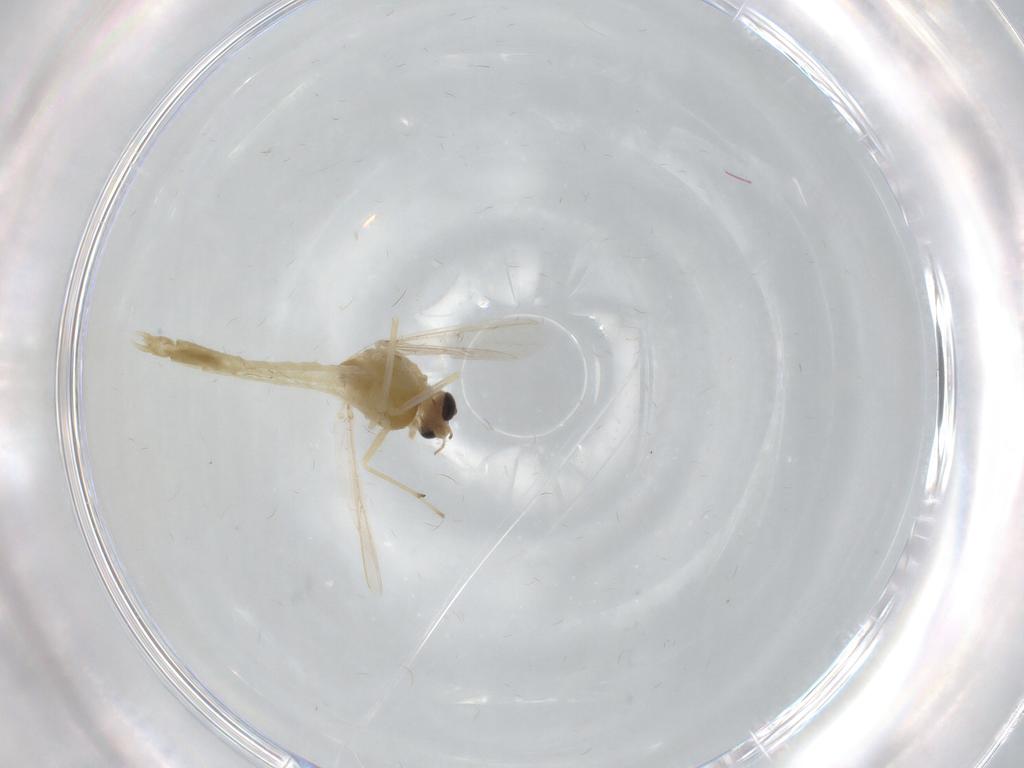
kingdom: Animalia
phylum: Arthropoda
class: Insecta
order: Diptera
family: Chironomidae
